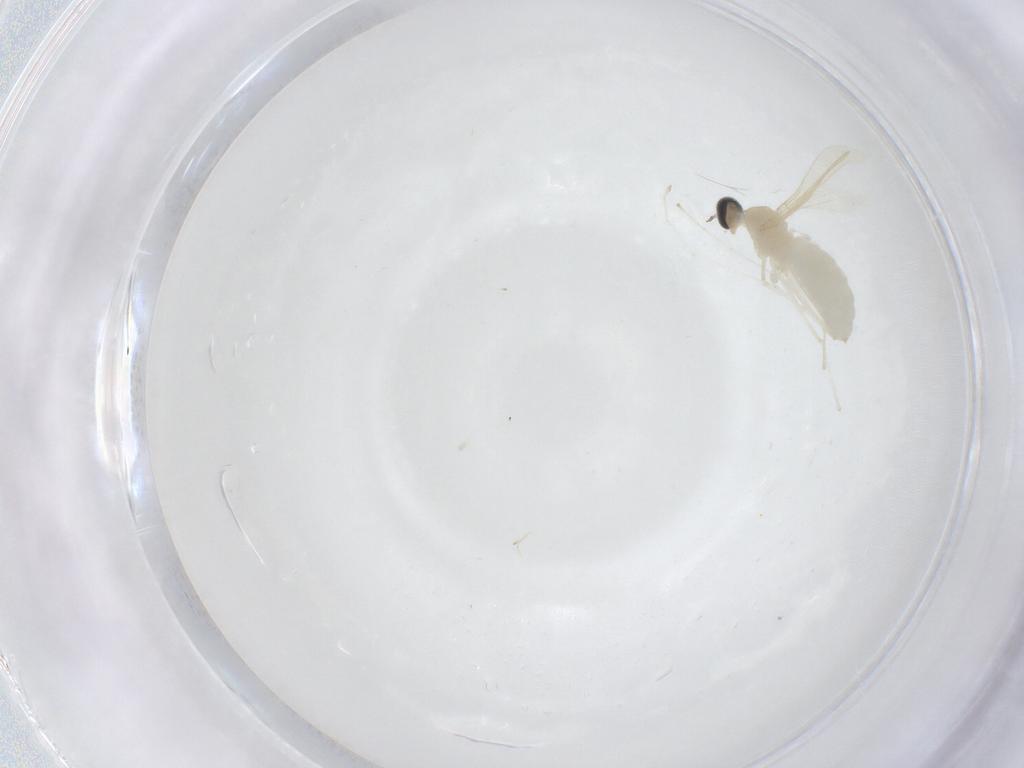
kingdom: Animalia
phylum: Arthropoda
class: Insecta
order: Diptera
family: Cecidomyiidae
